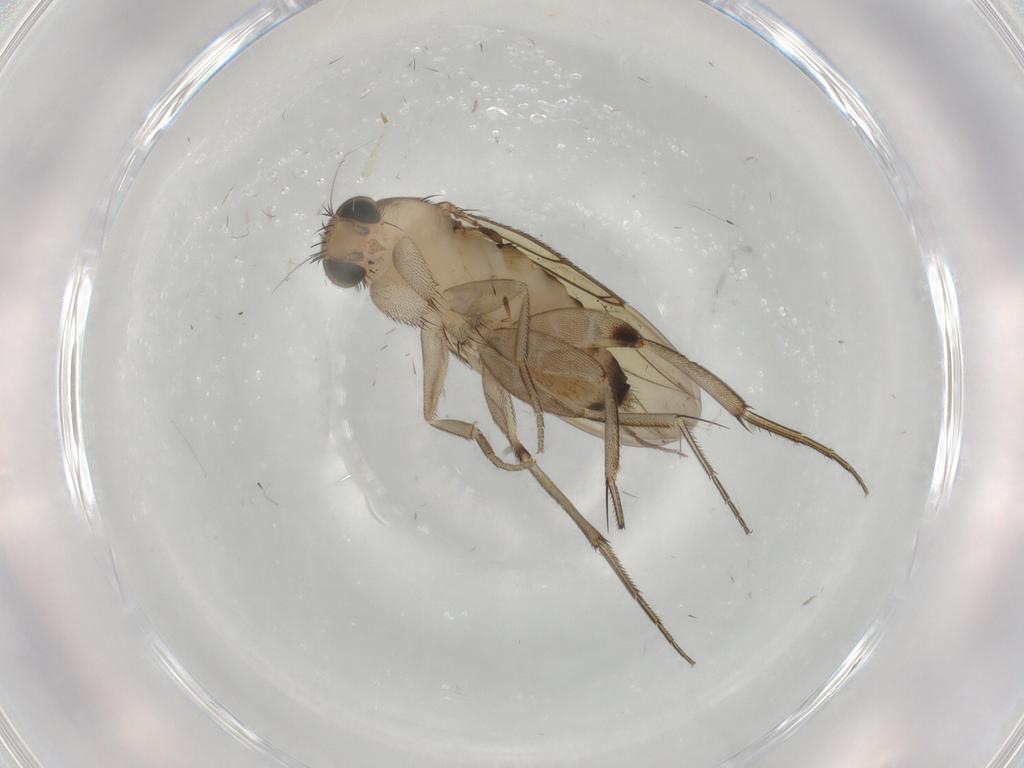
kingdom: Animalia
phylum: Arthropoda
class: Insecta
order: Diptera
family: Phoridae
